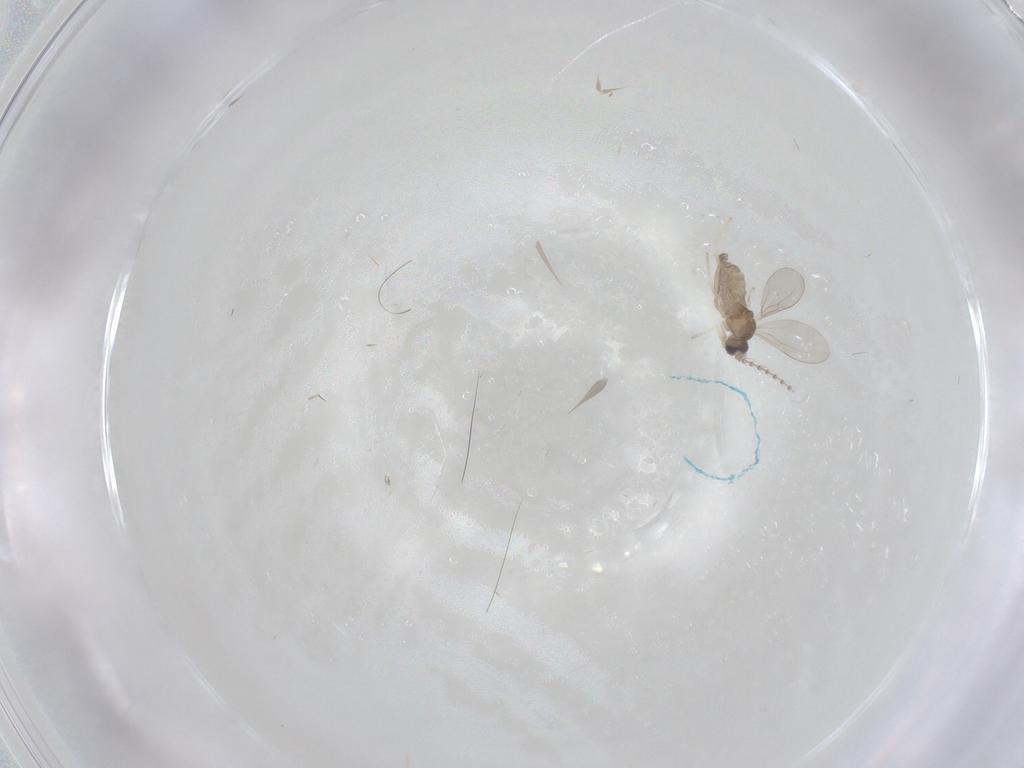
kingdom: Animalia
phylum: Arthropoda
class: Insecta
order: Diptera
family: Cecidomyiidae
